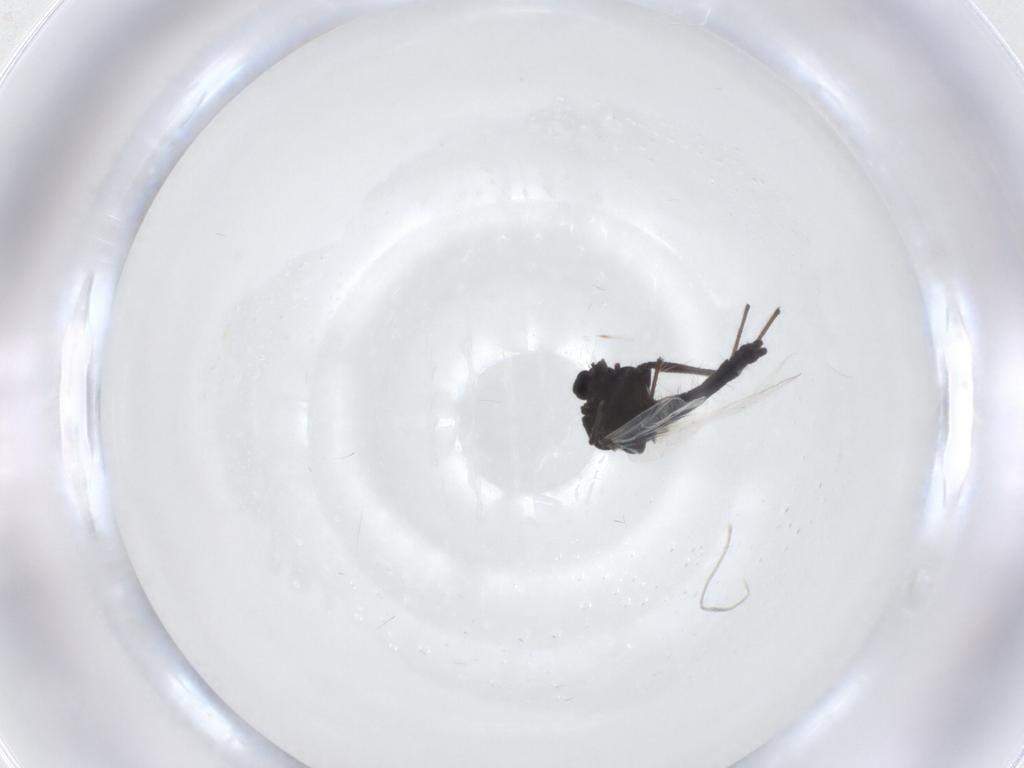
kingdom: Animalia
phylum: Arthropoda
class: Insecta
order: Diptera
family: Chironomidae
